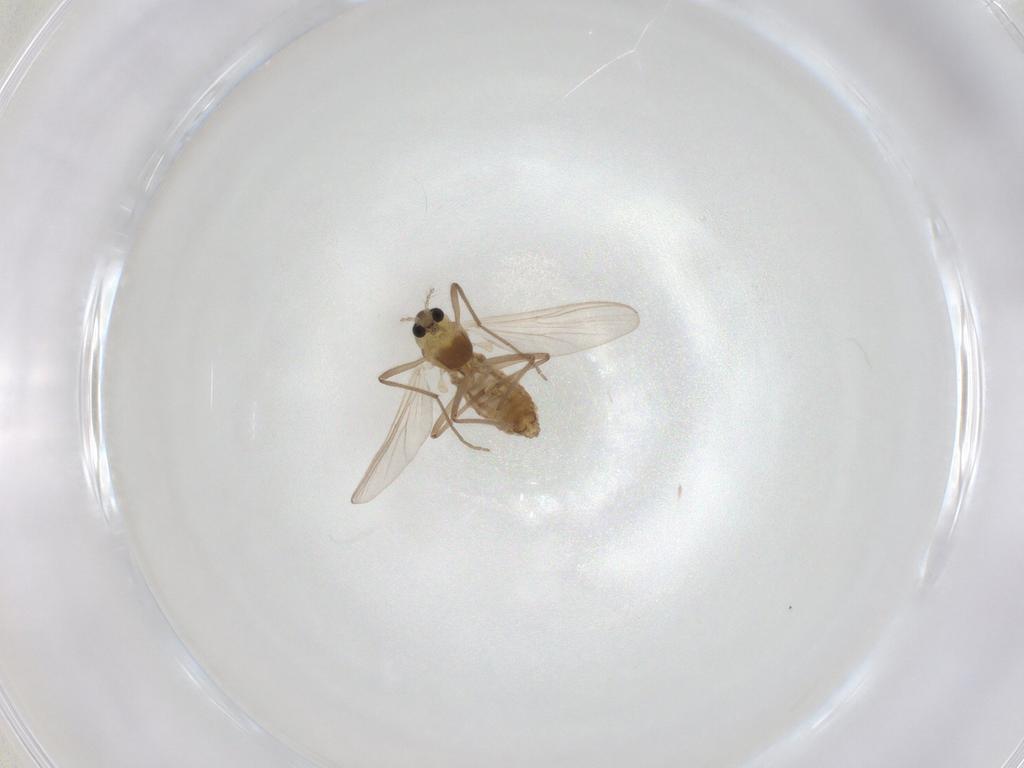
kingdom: Animalia
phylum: Arthropoda
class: Insecta
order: Diptera
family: Chironomidae
